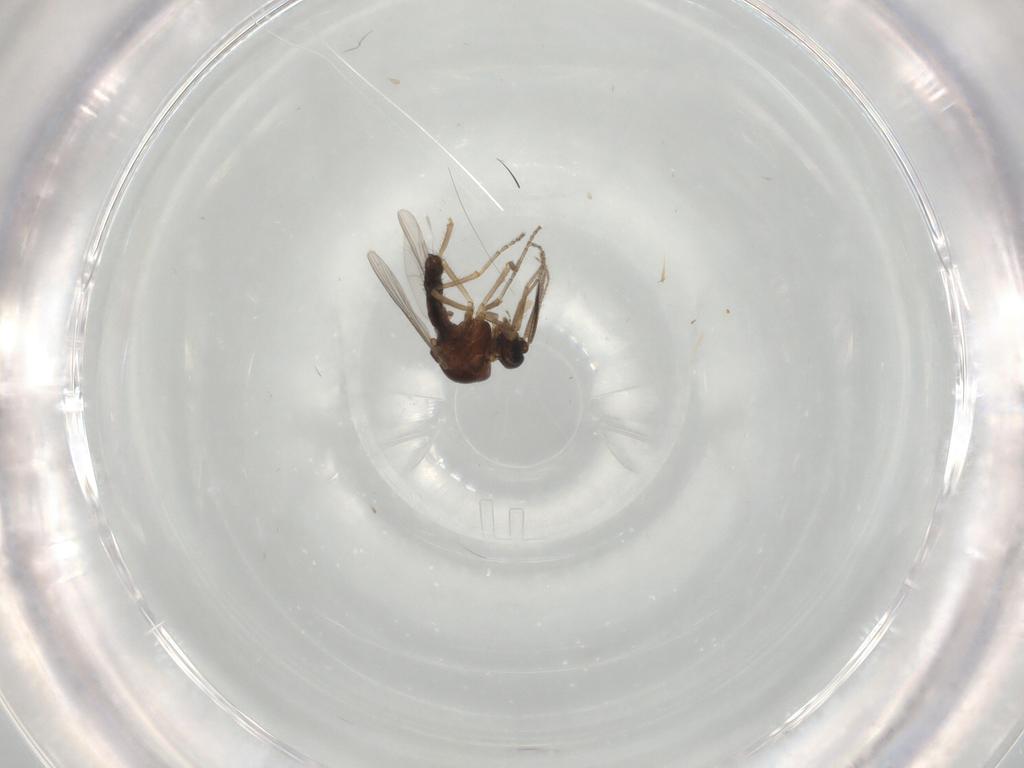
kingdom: Animalia
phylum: Arthropoda
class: Insecta
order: Diptera
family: Ceratopogonidae
